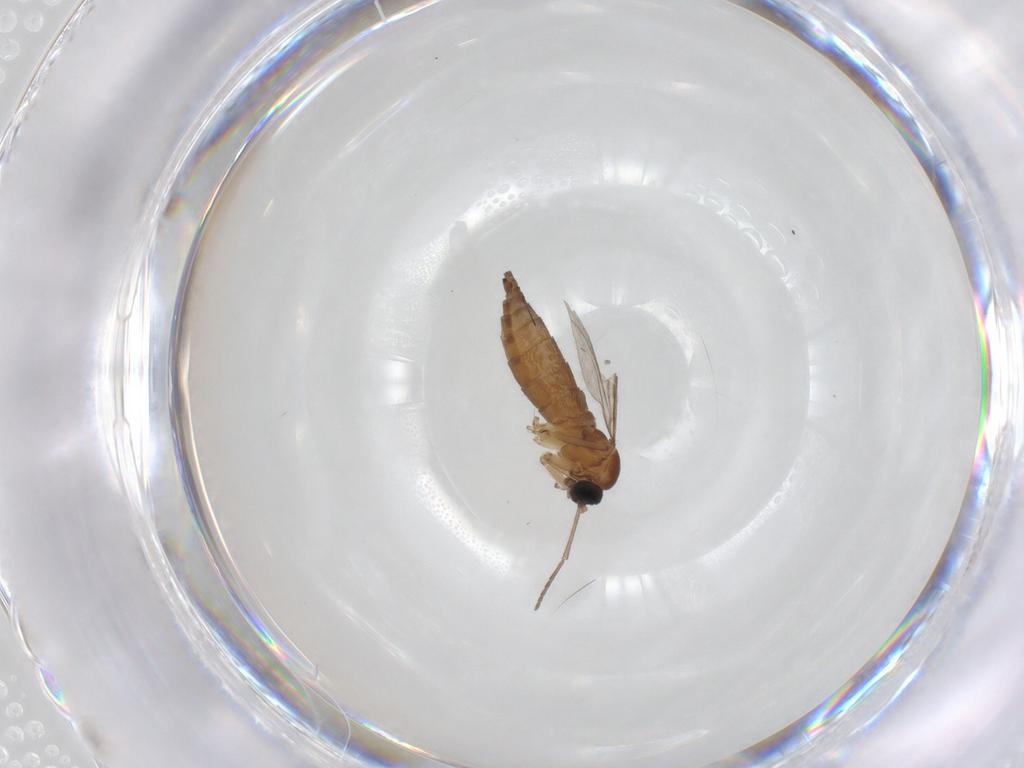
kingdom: Animalia
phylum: Arthropoda
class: Insecta
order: Diptera
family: Sciaridae
